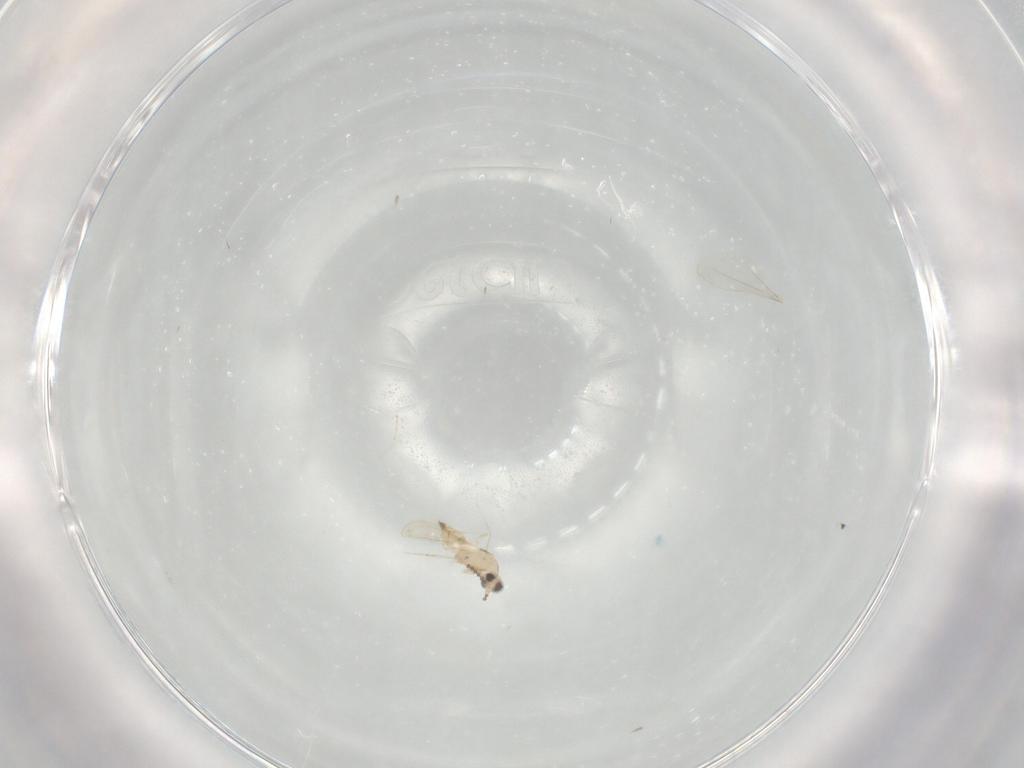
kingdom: Animalia
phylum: Arthropoda
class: Insecta
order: Diptera
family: Cecidomyiidae
